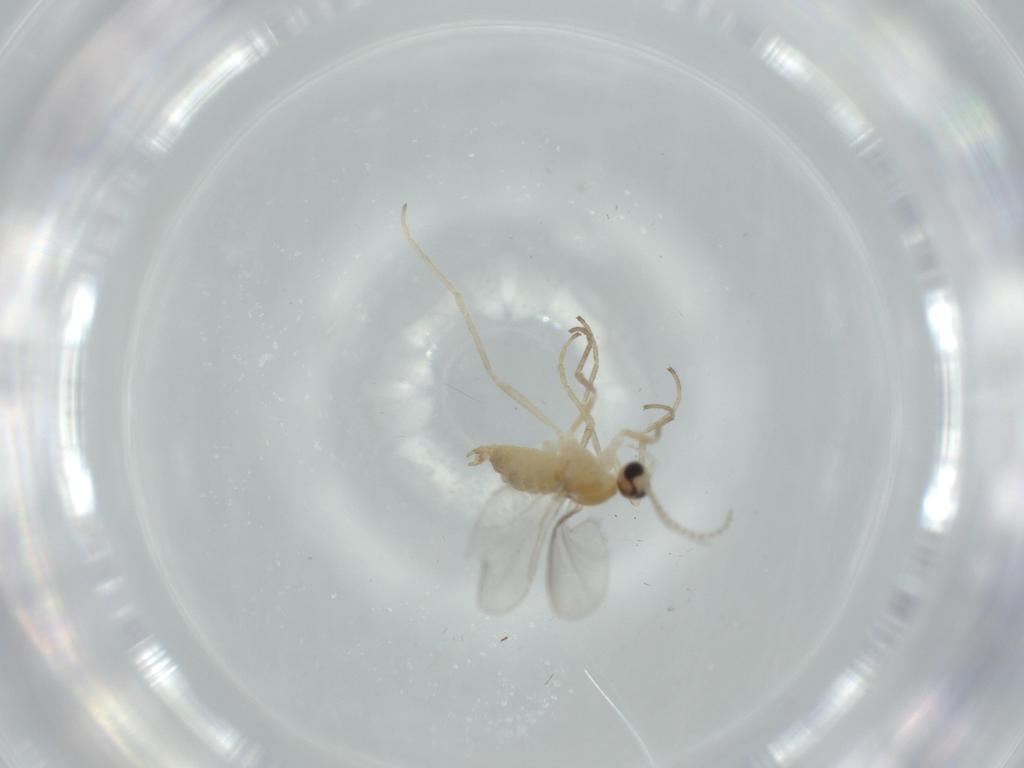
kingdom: Animalia
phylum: Arthropoda
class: Insecta
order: Diptera
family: Cecidomyiidae
